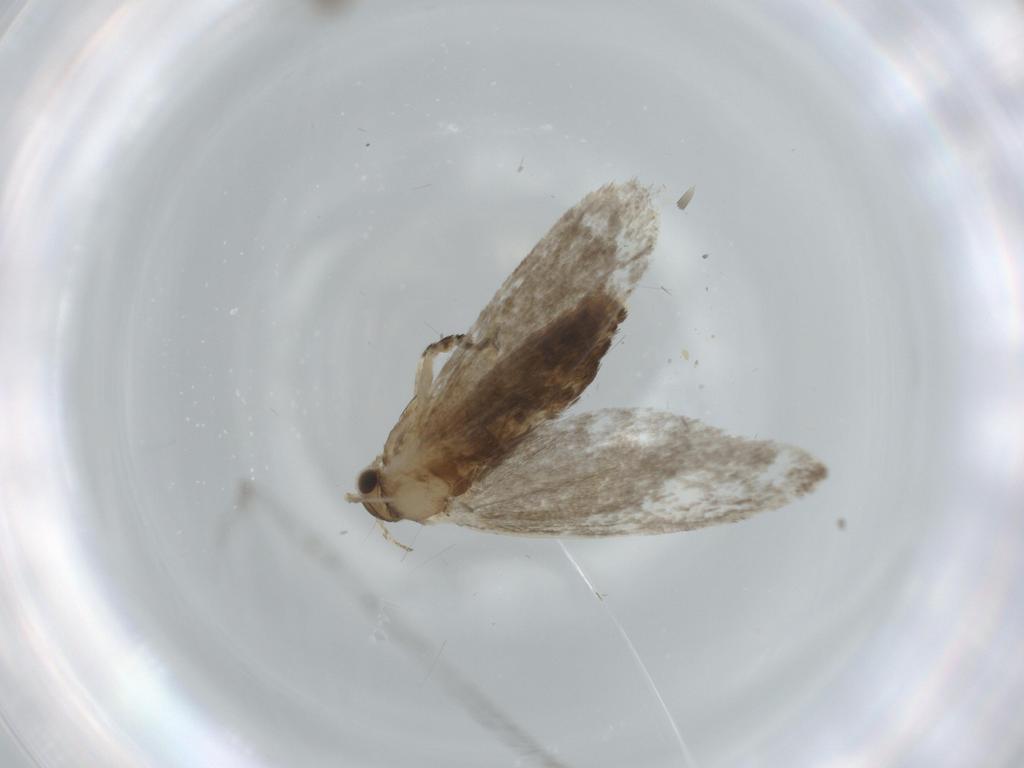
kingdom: Animalia
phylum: Arthropoda
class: Insecta
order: Lepidoptera
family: Tineidae
